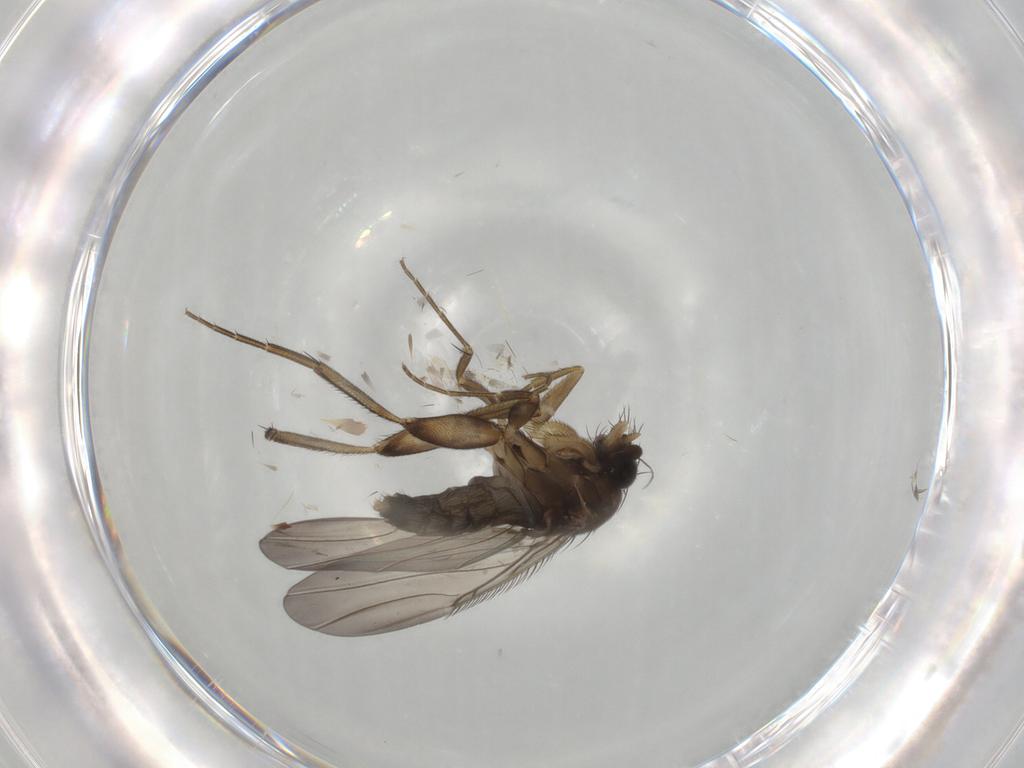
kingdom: Animalia
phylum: Arthropoda
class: Insecta
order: Diptera
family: Phoridae
